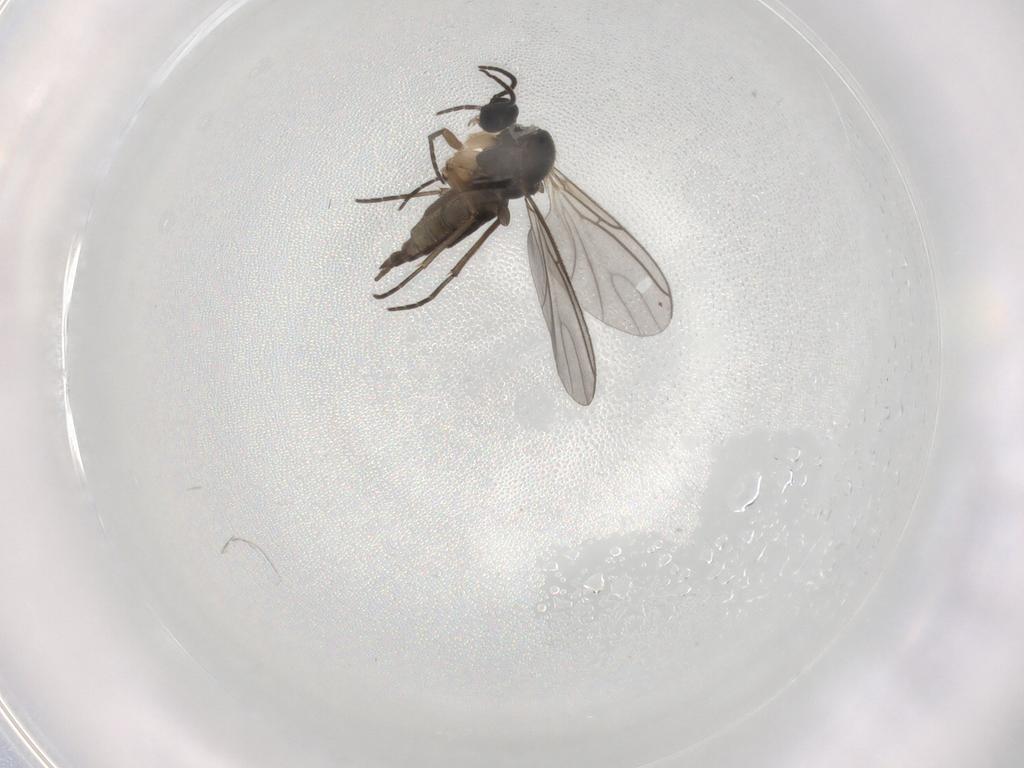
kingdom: Animalia
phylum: Arthropoda
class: Insecta
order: Diptera
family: Sciaridae
